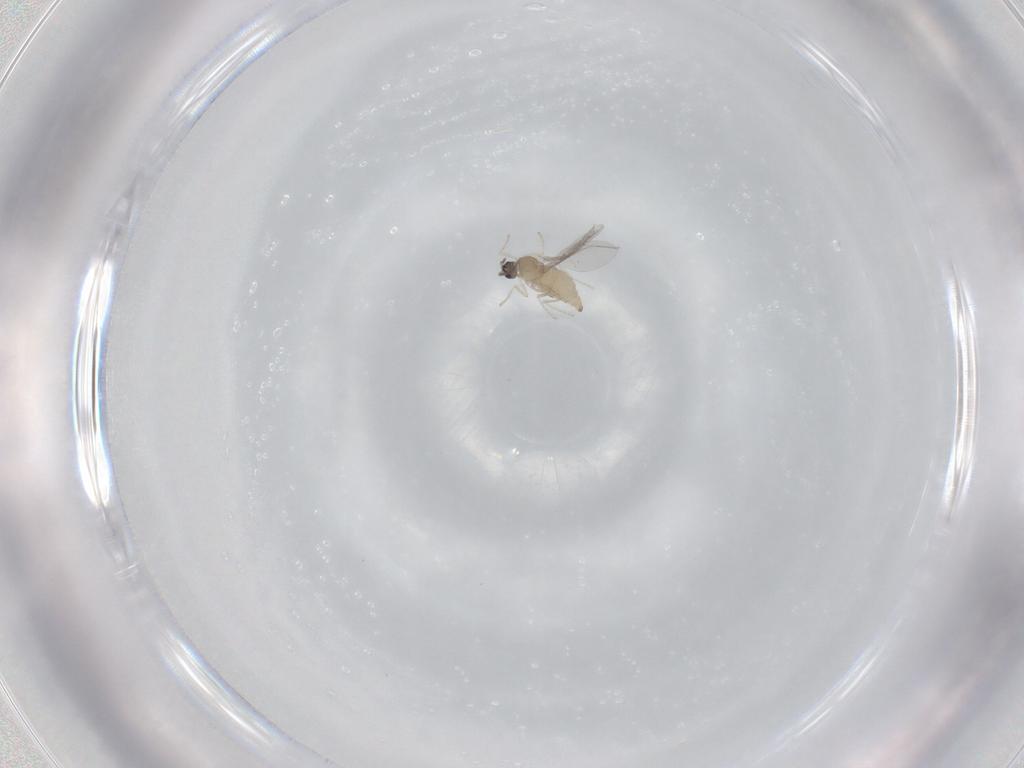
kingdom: Animalia
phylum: Arthropoda
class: Insecta
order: Diptera
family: Cecidomyiidae
